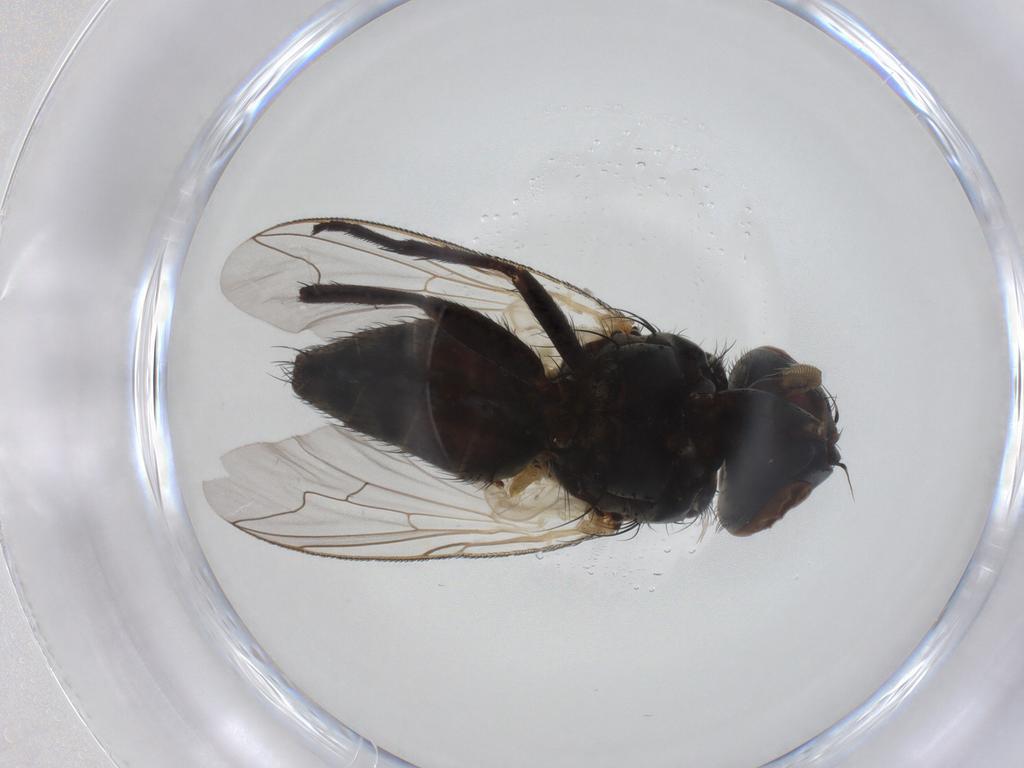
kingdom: Animalia
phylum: Arthropoda
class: Insecta
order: Diptera
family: Sarcophagidae
